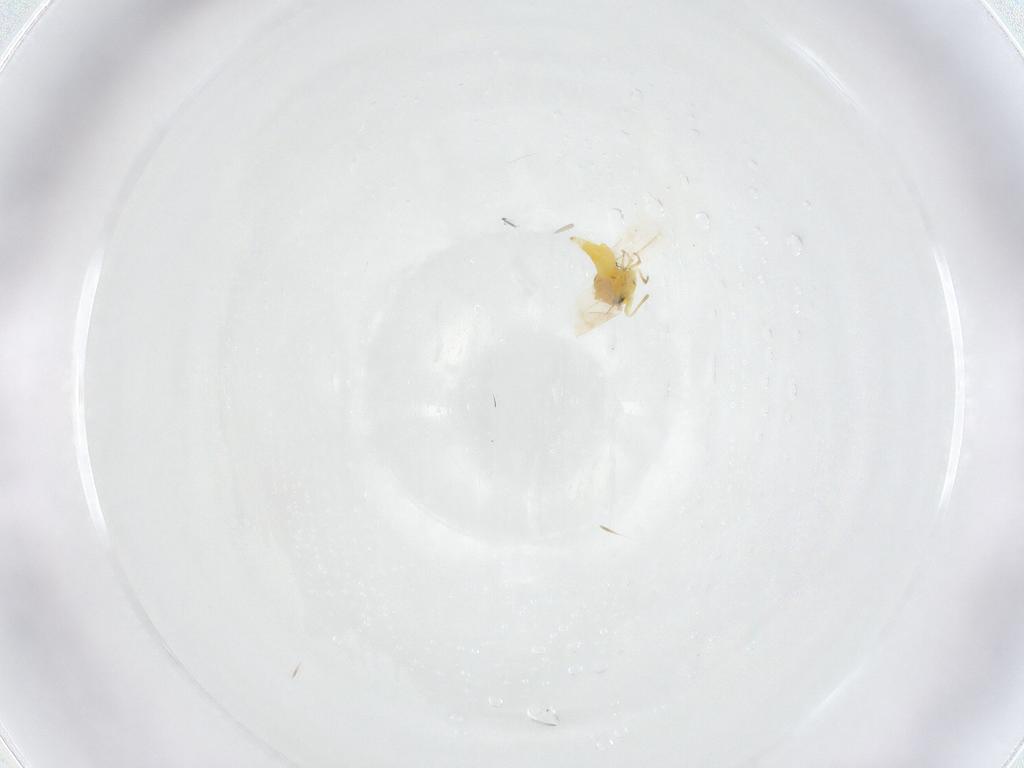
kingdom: Animalia
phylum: Arthropoda
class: Insecta
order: Hemiptera
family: Aleyrodidae
